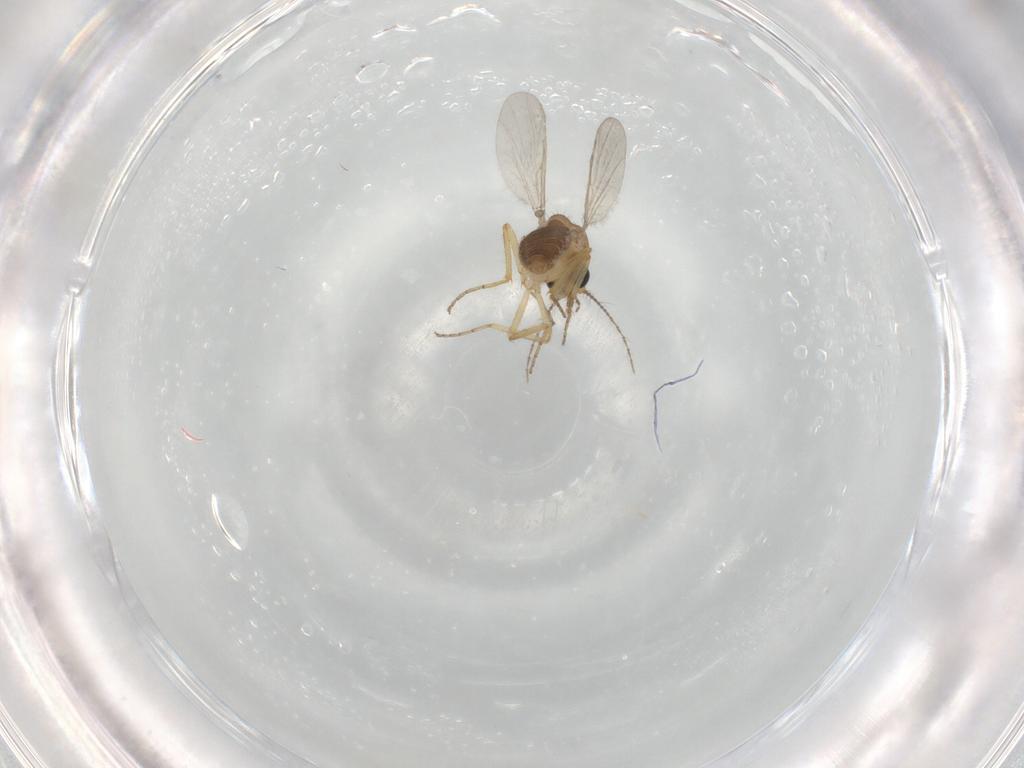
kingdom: Animalia
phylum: Arthropoda
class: Insecta
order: Diptera
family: Ceratopogonidae
